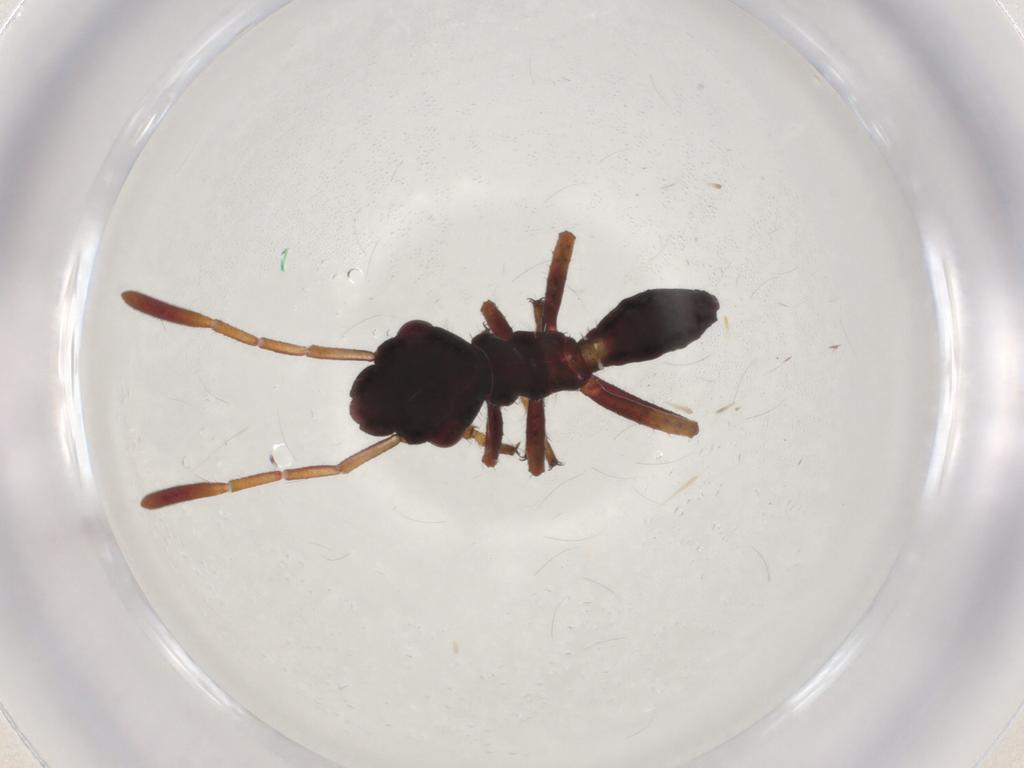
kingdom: Animalia
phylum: Arthropoda
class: Insecta
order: Hemiptera
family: Alydidae
